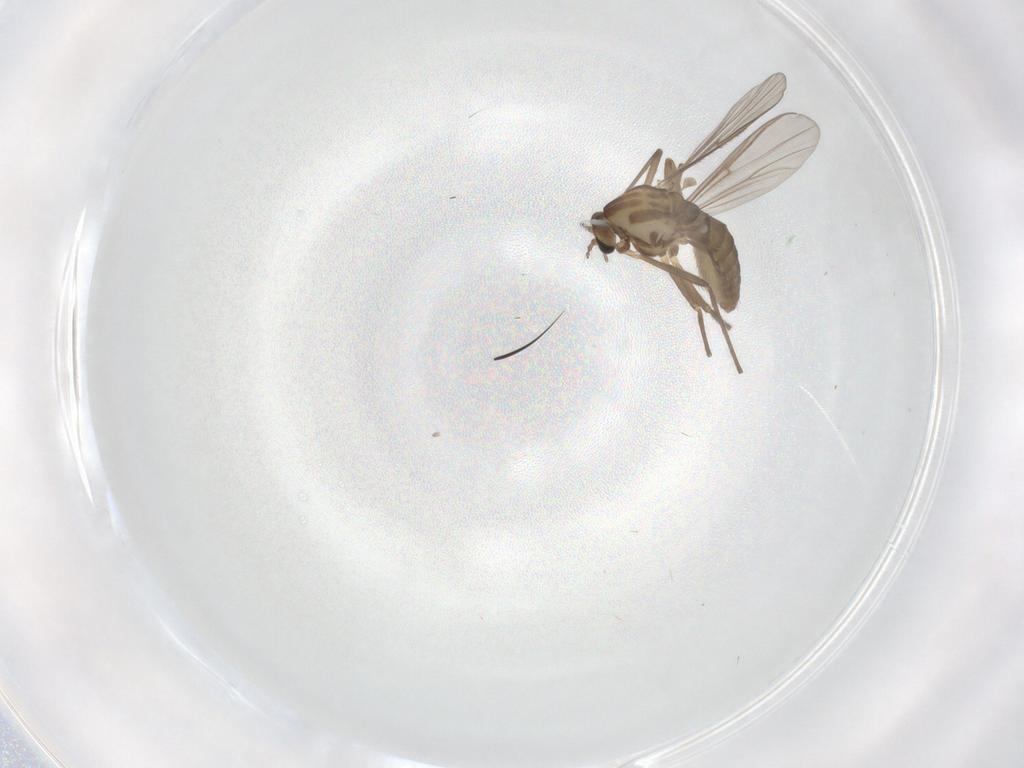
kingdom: Animalia
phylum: Arthropoda
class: Insecta
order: Diptera
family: Chironomidae
